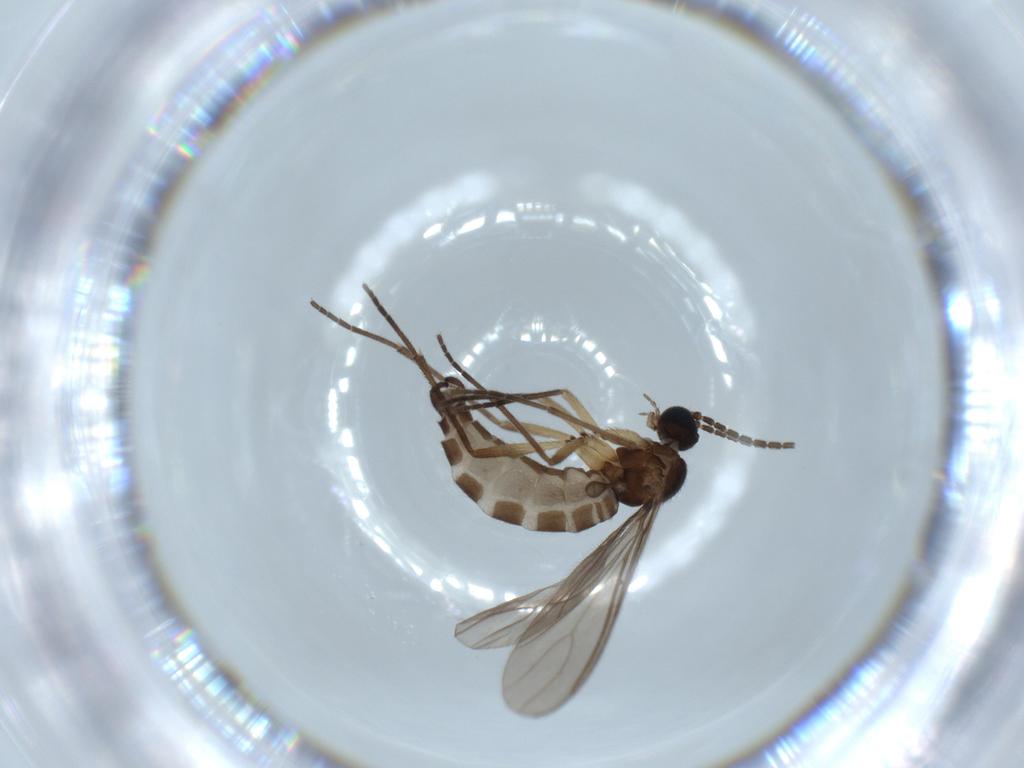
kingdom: Animalia
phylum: Arthropoda
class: Insecta
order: Diptera
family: Sciaridae
